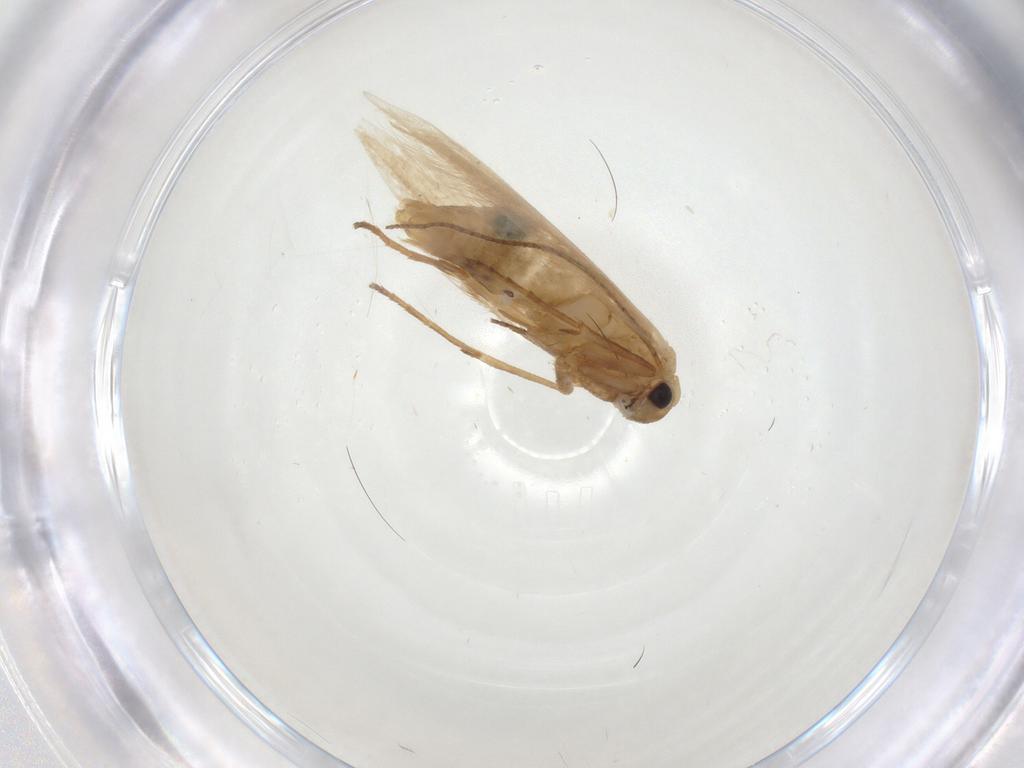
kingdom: Animalia
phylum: Arthropoda
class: Insecta
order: Lepidoptera
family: Bucculatricidae
